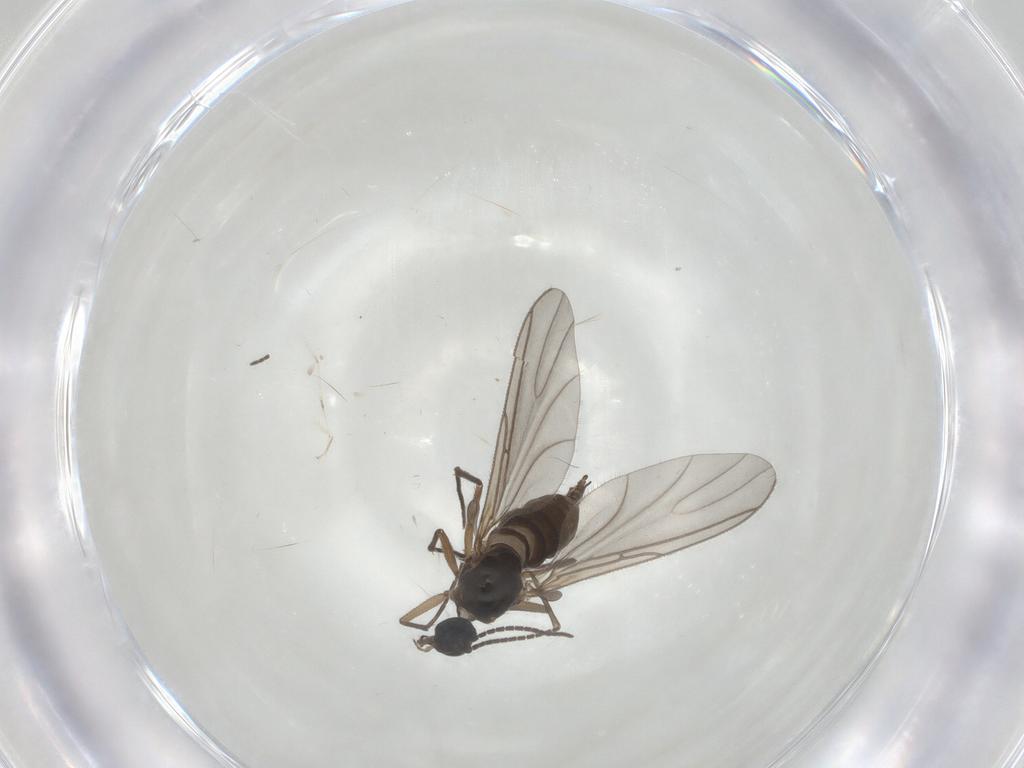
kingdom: Animalia
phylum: Arthropoda
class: Insecta
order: Diptera
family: Sciaridae
